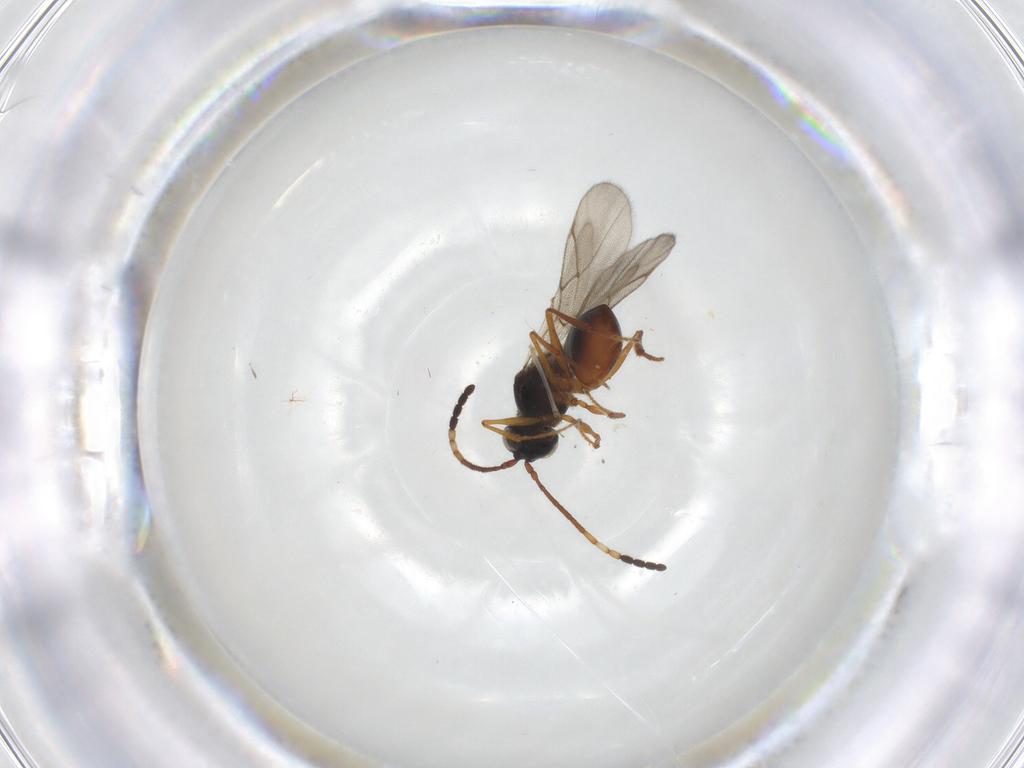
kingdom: Animalia
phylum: Arthropoda
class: Insecta
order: Hymenoptera
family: Figitidae
